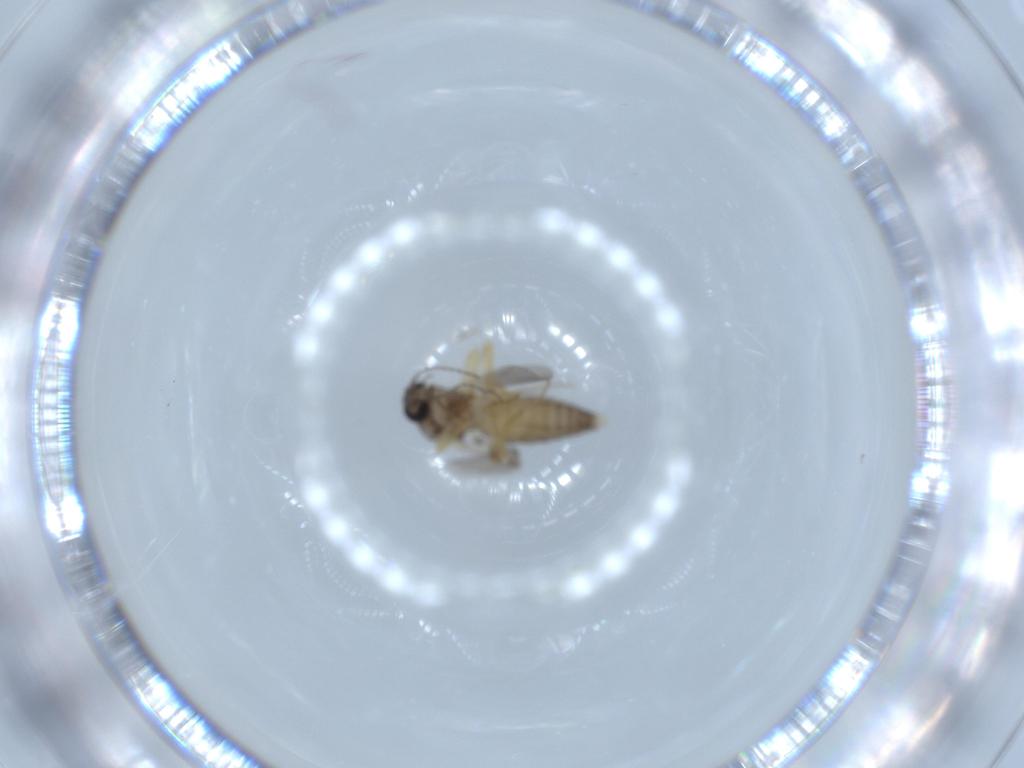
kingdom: Animalia
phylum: Arthropoda
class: Insecta
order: Diptera
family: Ceratopogonidae
